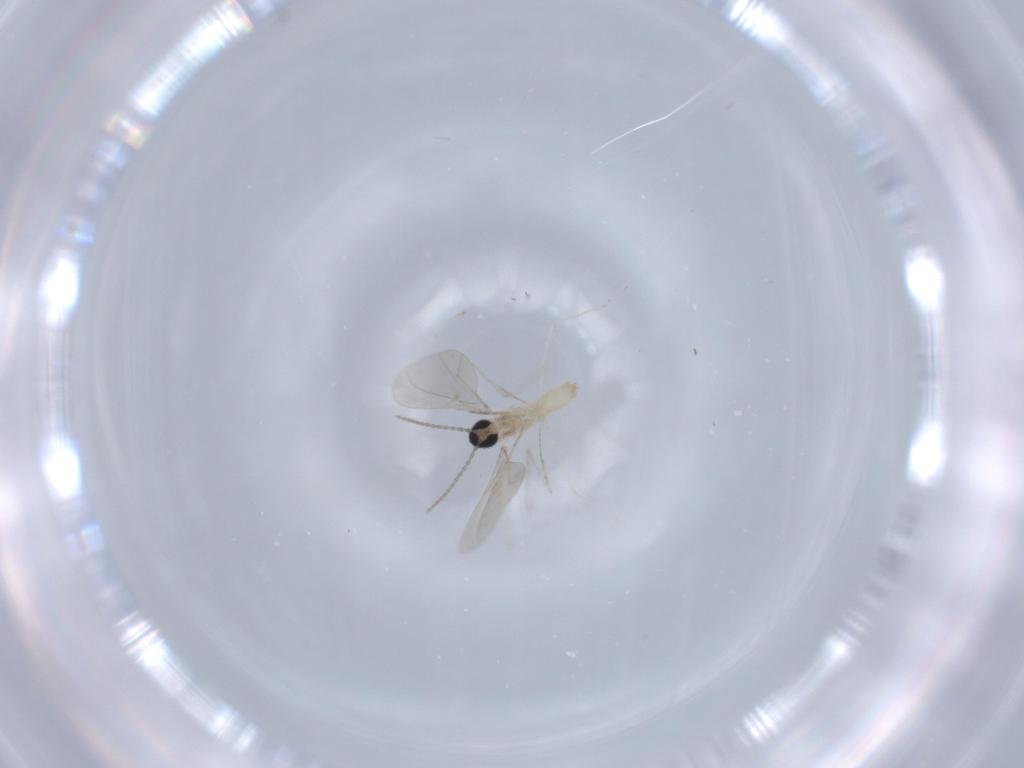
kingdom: Animalia
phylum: Arthropoda
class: Insecta
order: Diptera
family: Cecidomyiidae
